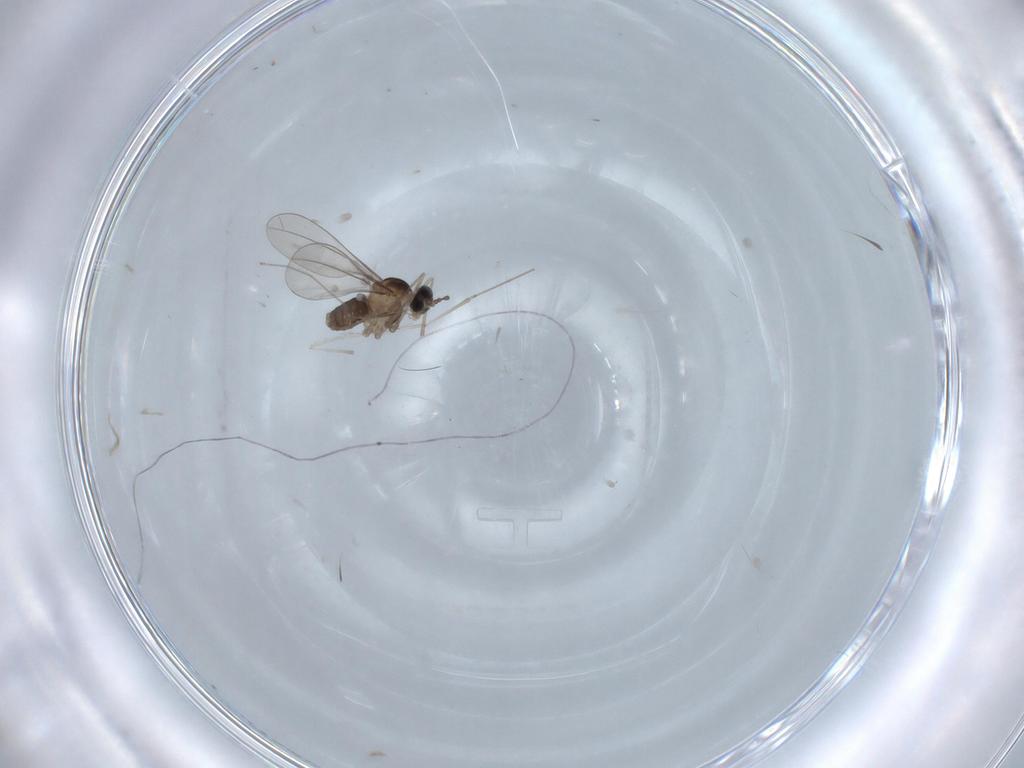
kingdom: Animalia
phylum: Arthropoda
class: Insecta
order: Diptera
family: Cecidomyiidae
